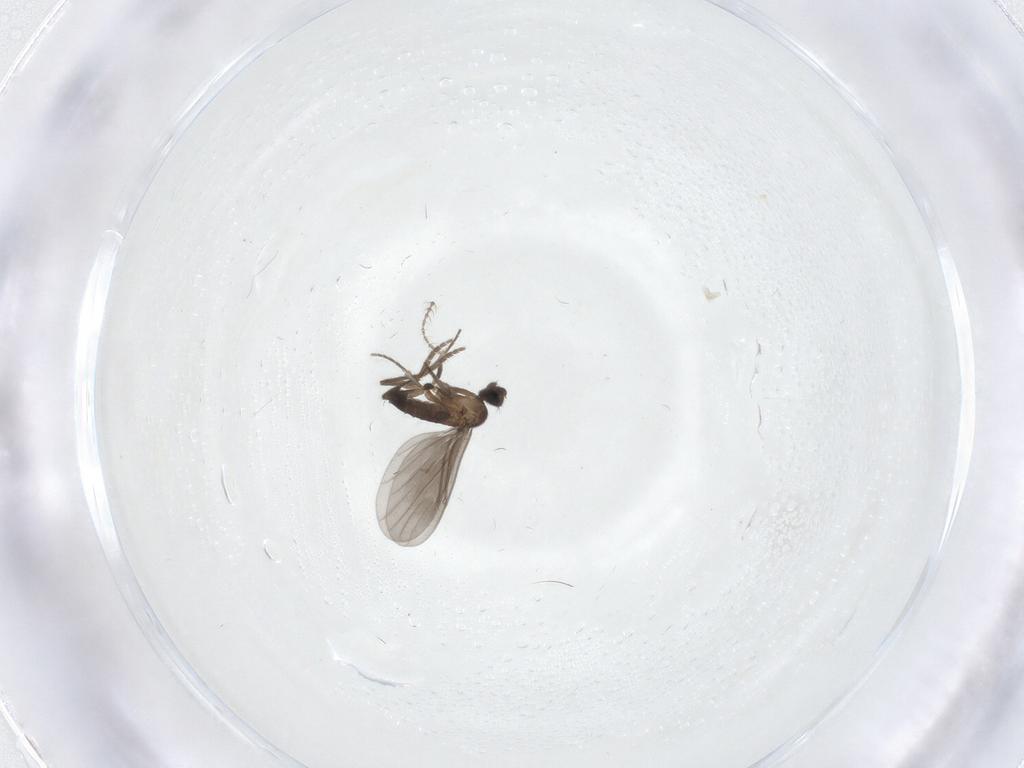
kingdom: Animalia
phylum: Arthropoda
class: Insecta
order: Diptera
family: Ceratopogonidae
